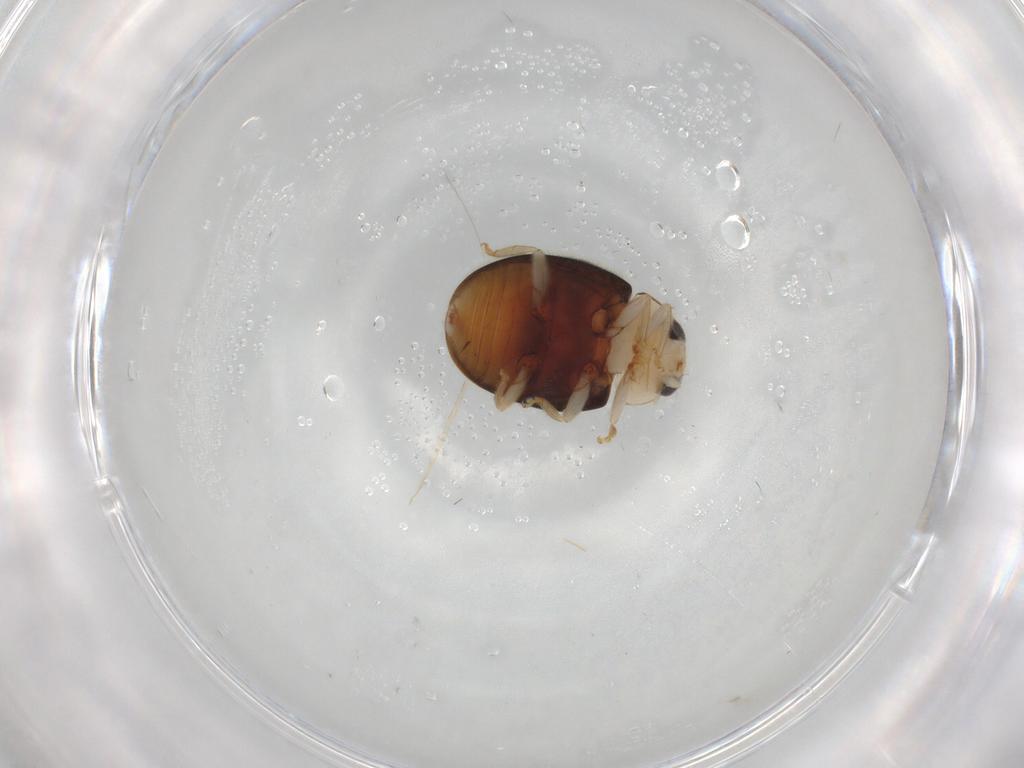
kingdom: Animalia
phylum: Arthropoda
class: Insecta
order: Coleoptera
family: Coccinellidae
